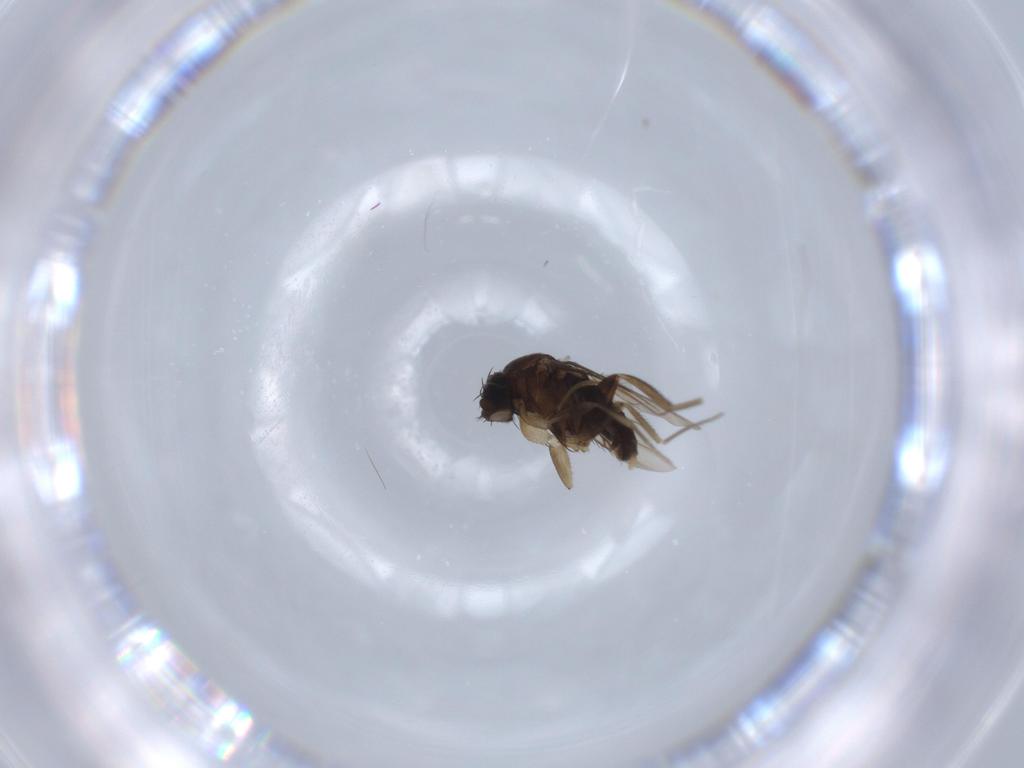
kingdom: Animalia
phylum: Arthropoda
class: Insecta
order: Diptera
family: Phoridae
